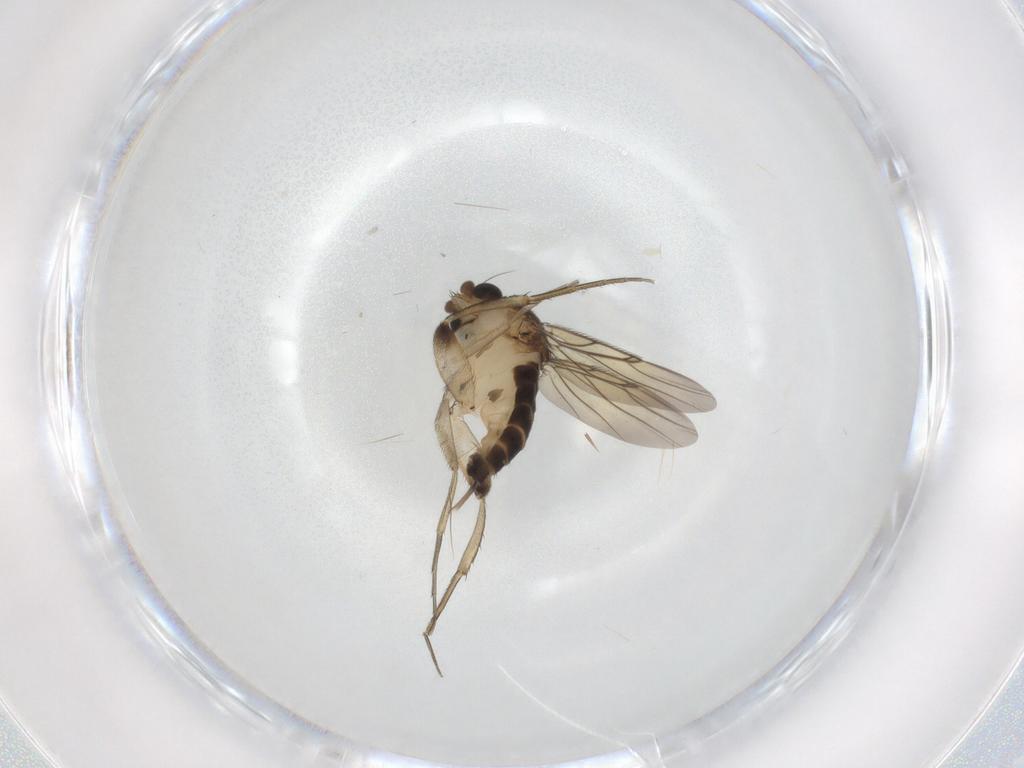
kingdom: Animalia
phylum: Arthropoda
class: Insecta
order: Diptera
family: Phoridae
